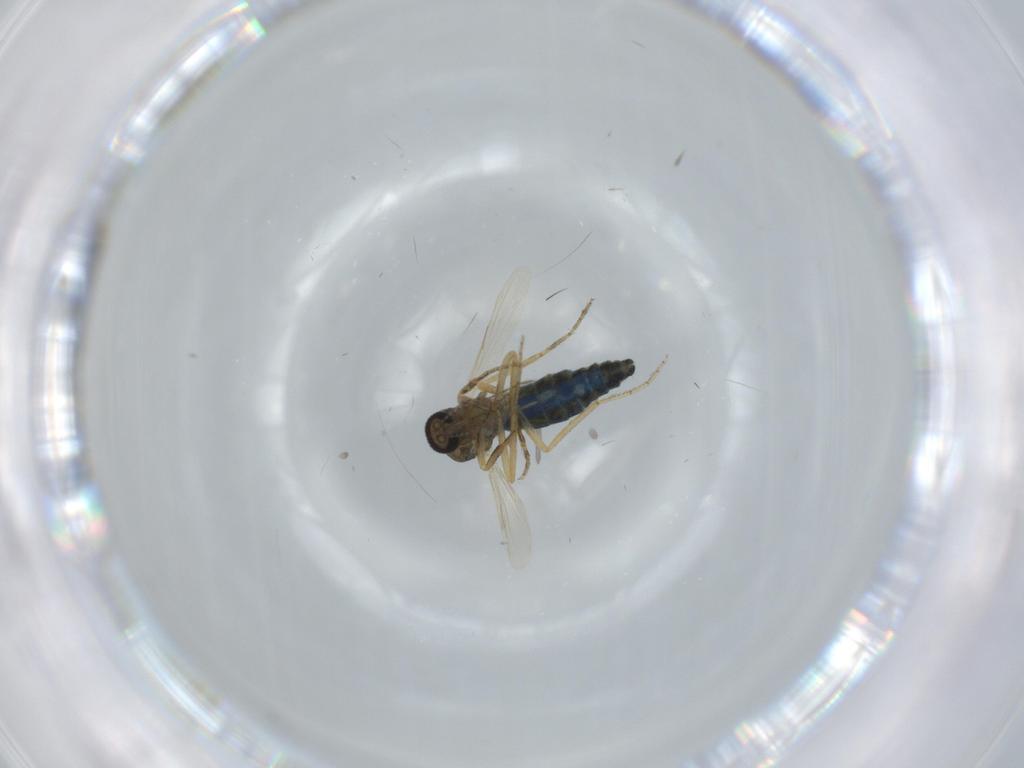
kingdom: Animalia
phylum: Arthropoda
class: Insecta
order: Diptera
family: Ceratopogonidae
